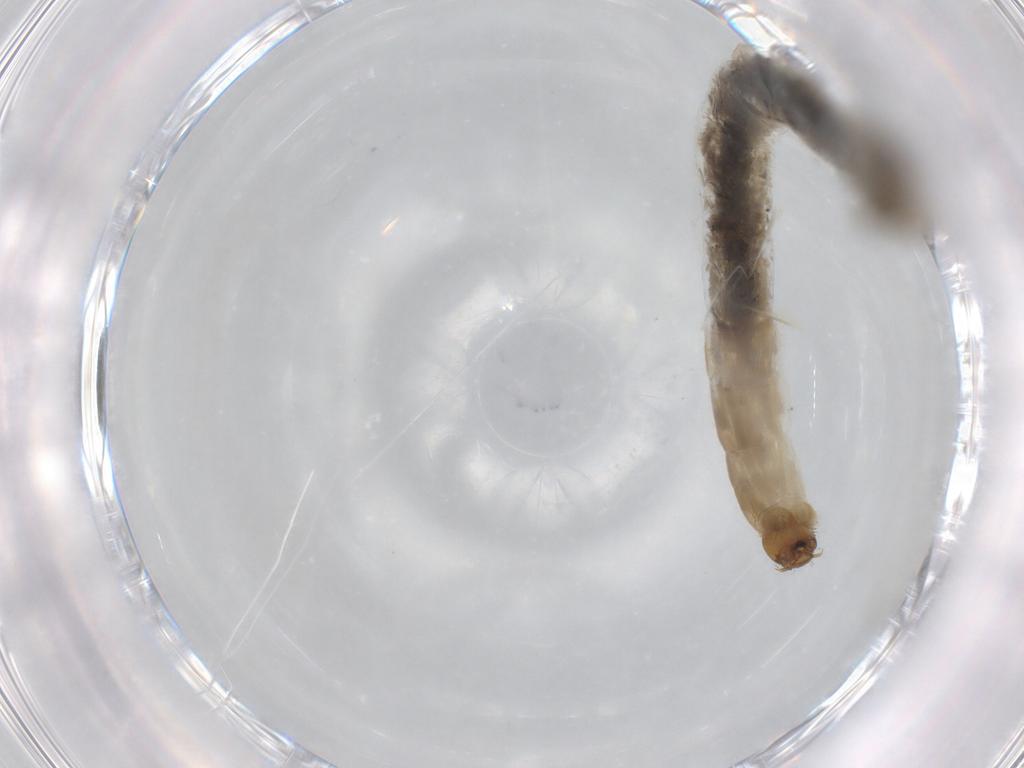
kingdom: Animalia
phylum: Arthropoda
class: Insecta
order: Diptera
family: Chironomidae
